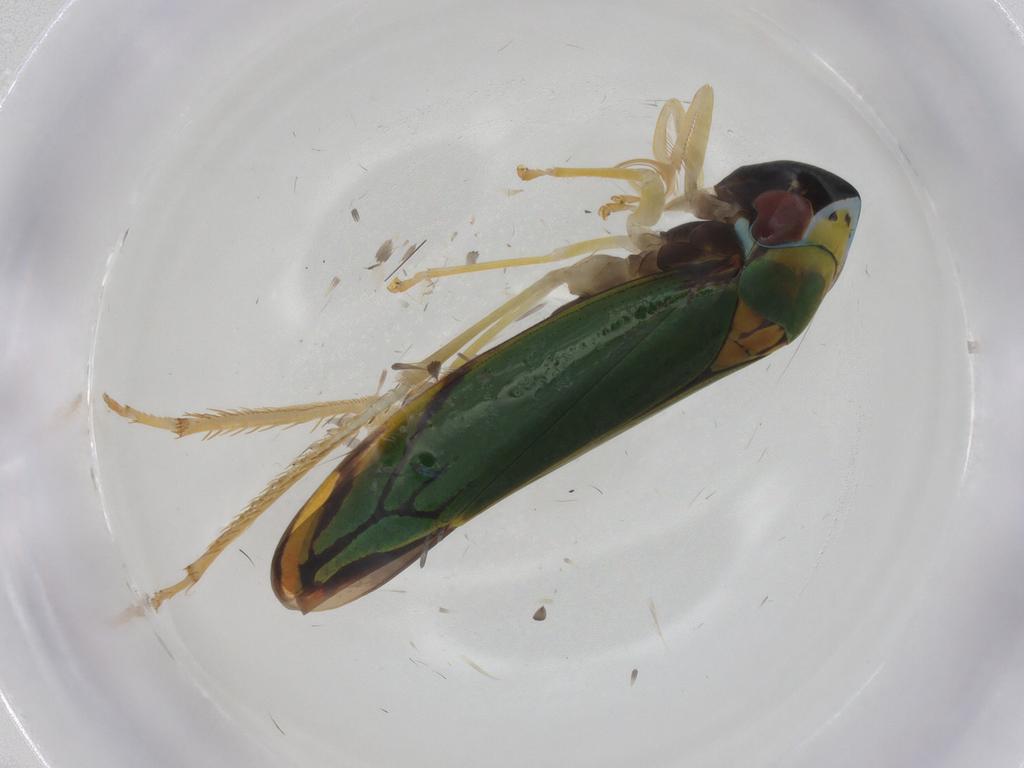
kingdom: Animalia
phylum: Arthropoda
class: Insecta
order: Hemiptera
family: Cicadellidae
